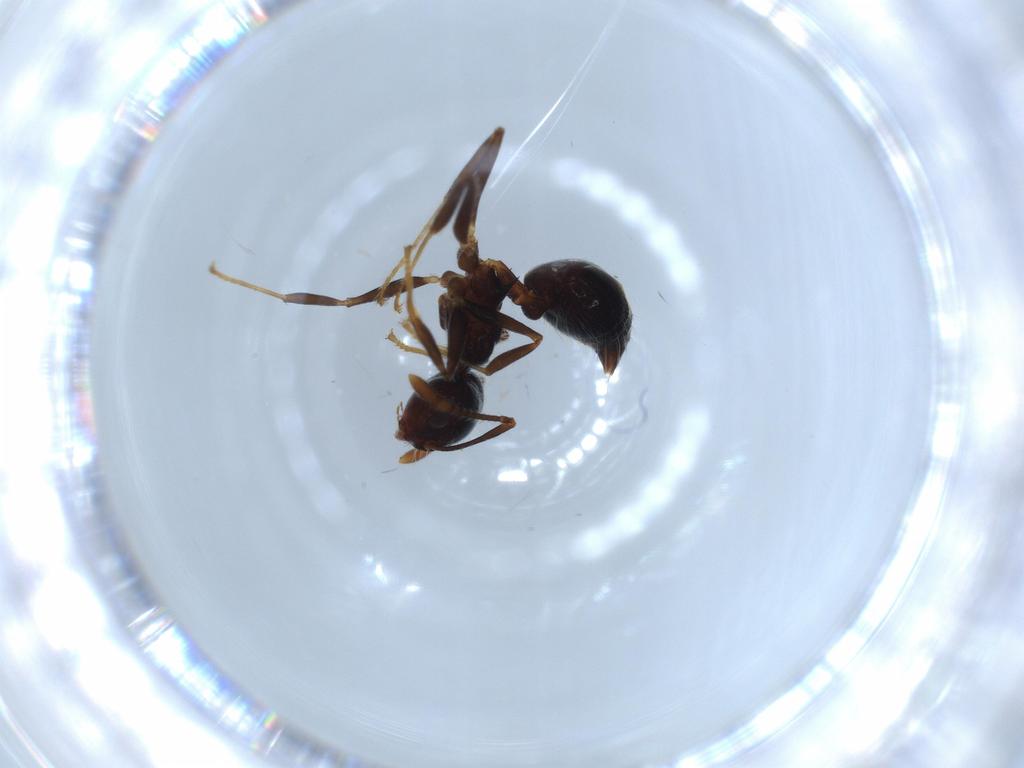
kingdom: Animalia
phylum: Arthropoda
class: Insecta
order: Hymenoptera
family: Formicidae
